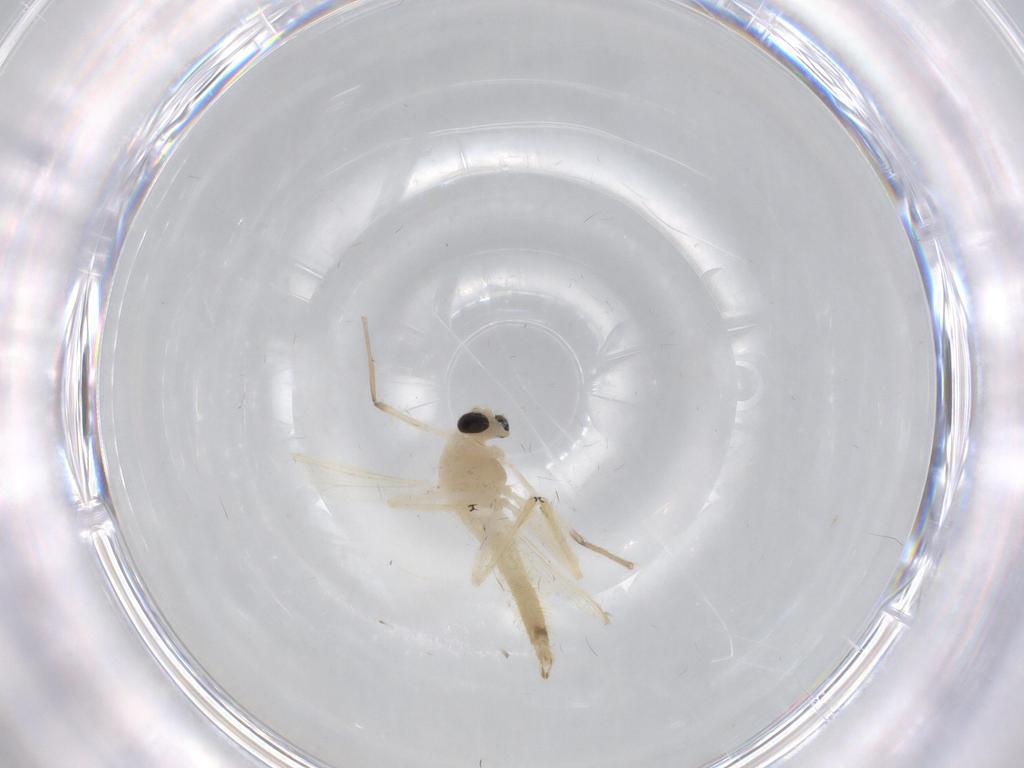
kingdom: Animalia
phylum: Arthropoda
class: Insecta
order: Diptera
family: Chironomidae
